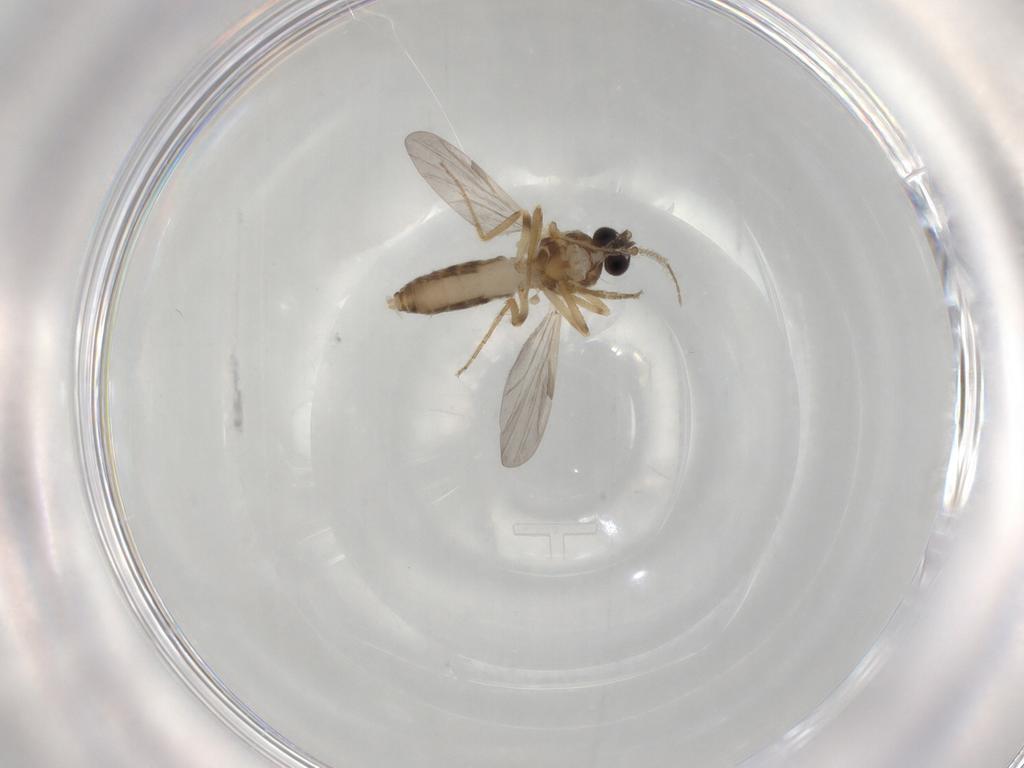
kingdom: Animalia
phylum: Arthropoda
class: Insecta
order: Diptera
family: Ceratopogonidae
